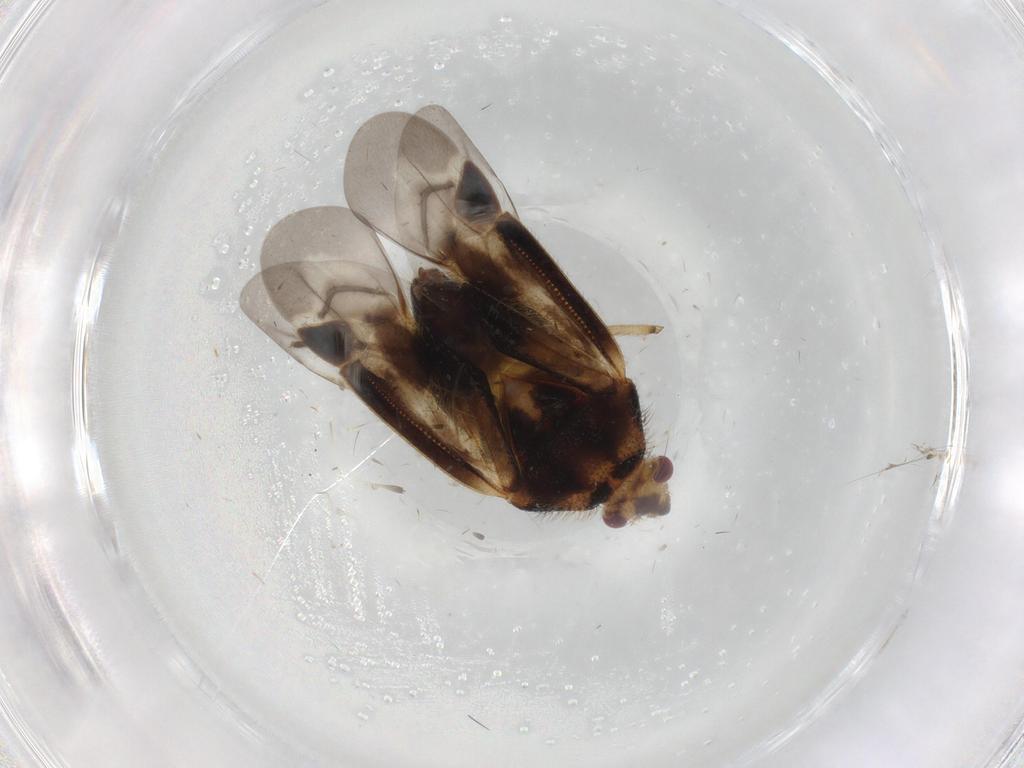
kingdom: Animalia
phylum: Arthropoda
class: Insecta
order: Hemiptera
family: Miridae
